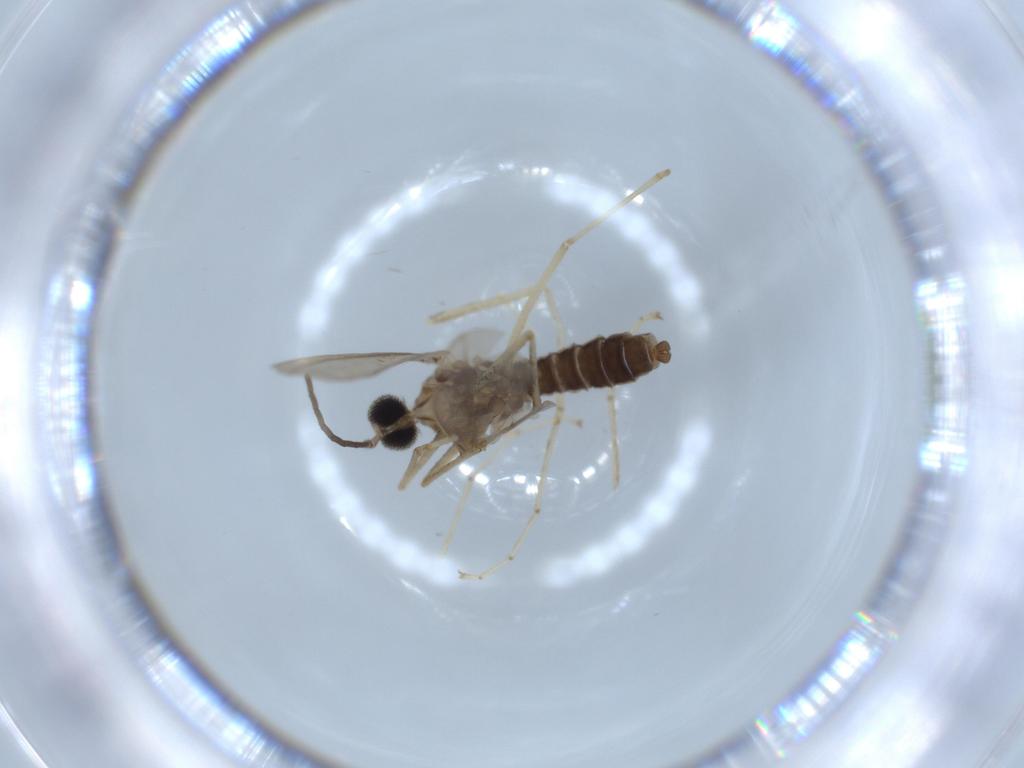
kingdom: Animalia
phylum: Arthropoda
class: Insecta
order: Diptera
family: Cecidomyiidae
